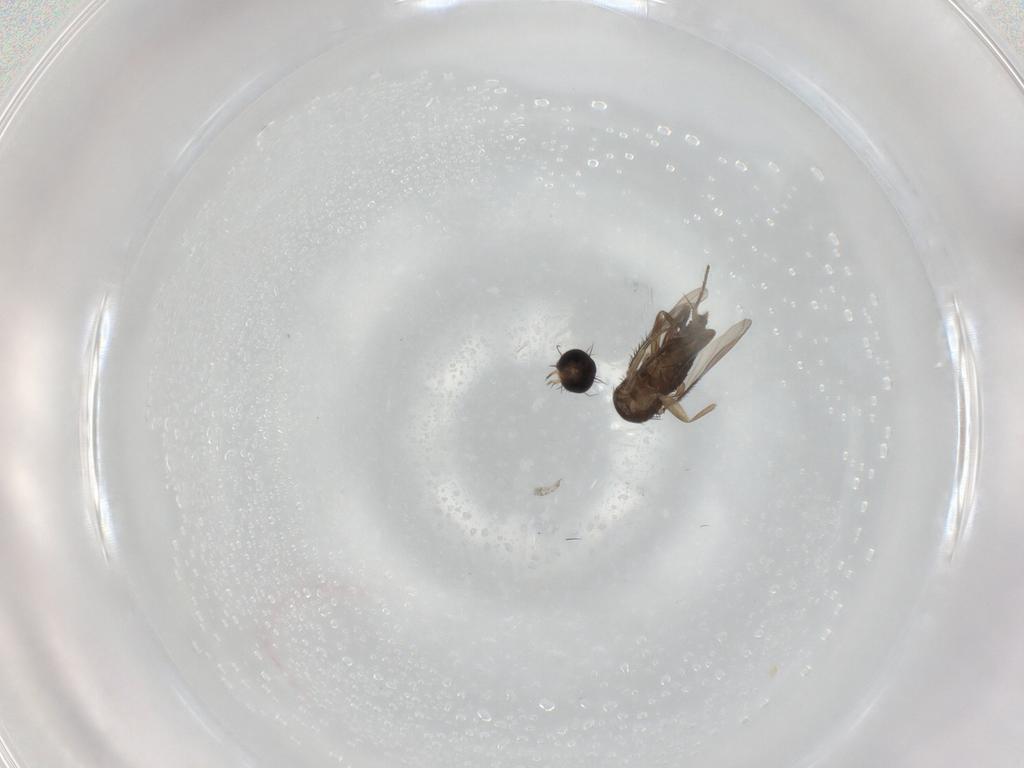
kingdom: Animalia
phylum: Arthropoda
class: Insecta
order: Diptera
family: Phoridae
